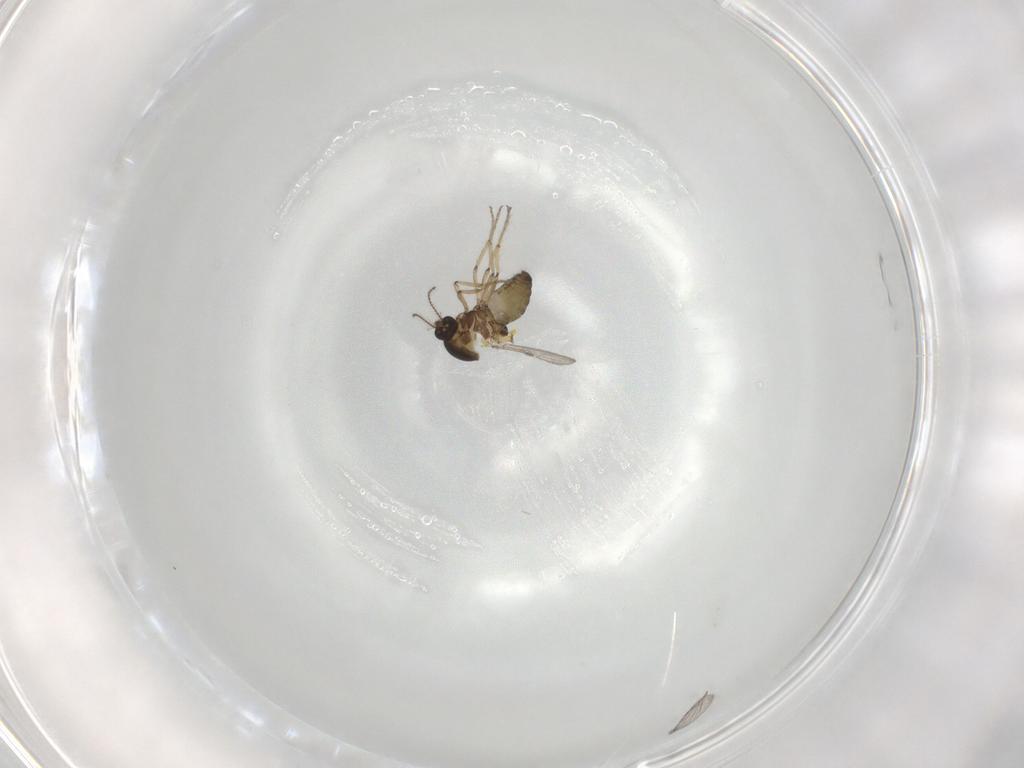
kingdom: Animalia
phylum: Arthropoda
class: Insecta
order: Diptera
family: Ceratopogonidae
